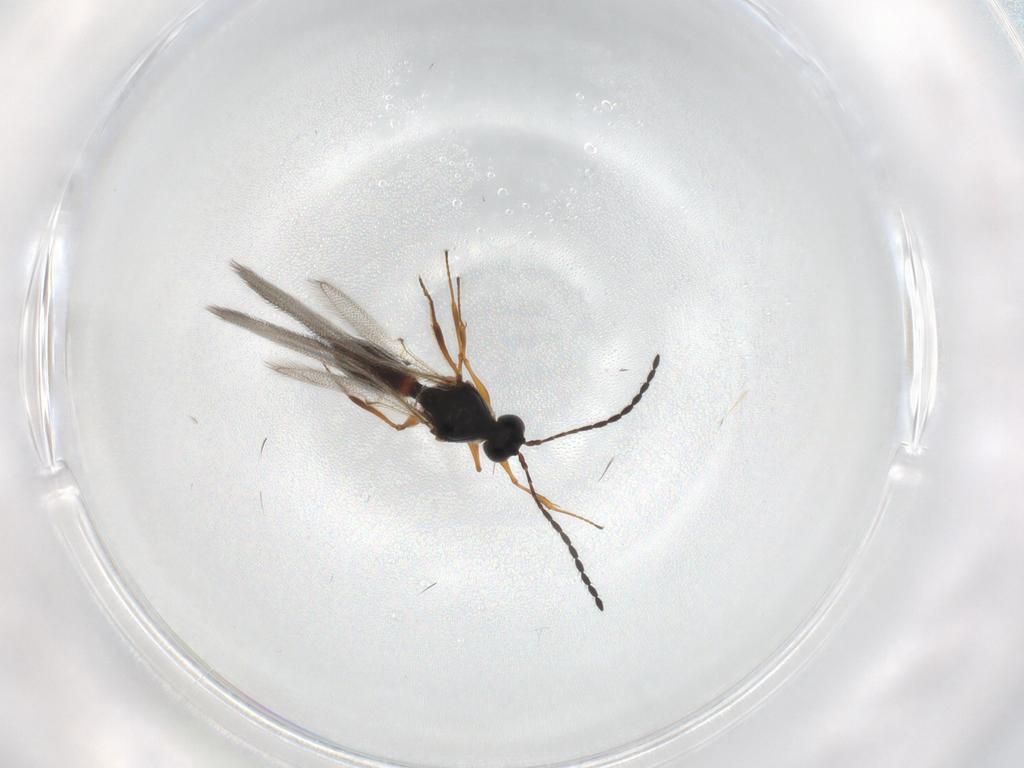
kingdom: Animalia
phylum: Arthropoda
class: Insecta
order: Hymenoptera
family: Figitidae
